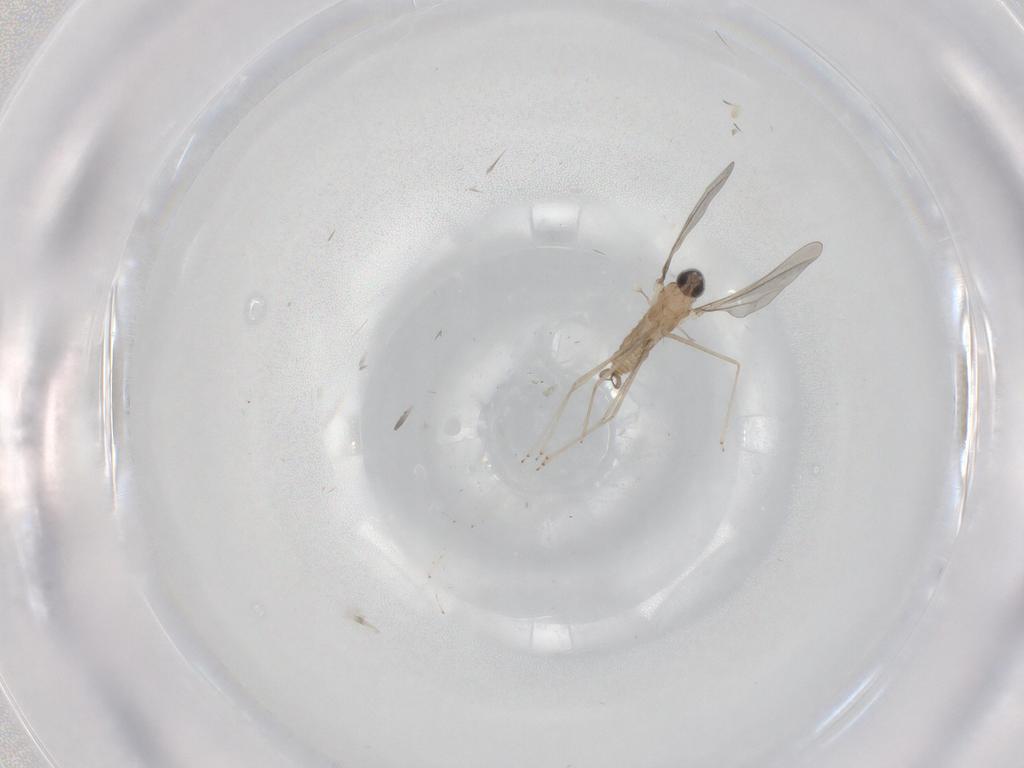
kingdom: Animalia
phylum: Arthropoda
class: Insecta
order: Diptera
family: Cecidomyiidae
